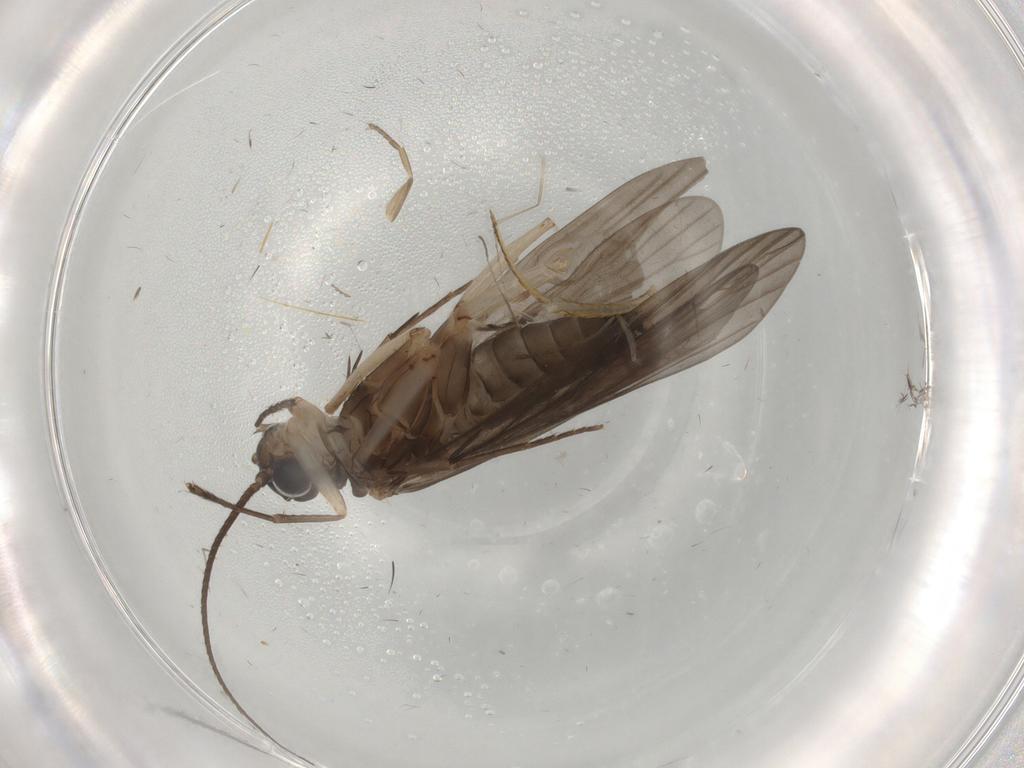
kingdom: Animalia
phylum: Arthropoda
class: Insecta
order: Trichoptera
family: Philopotamidae
